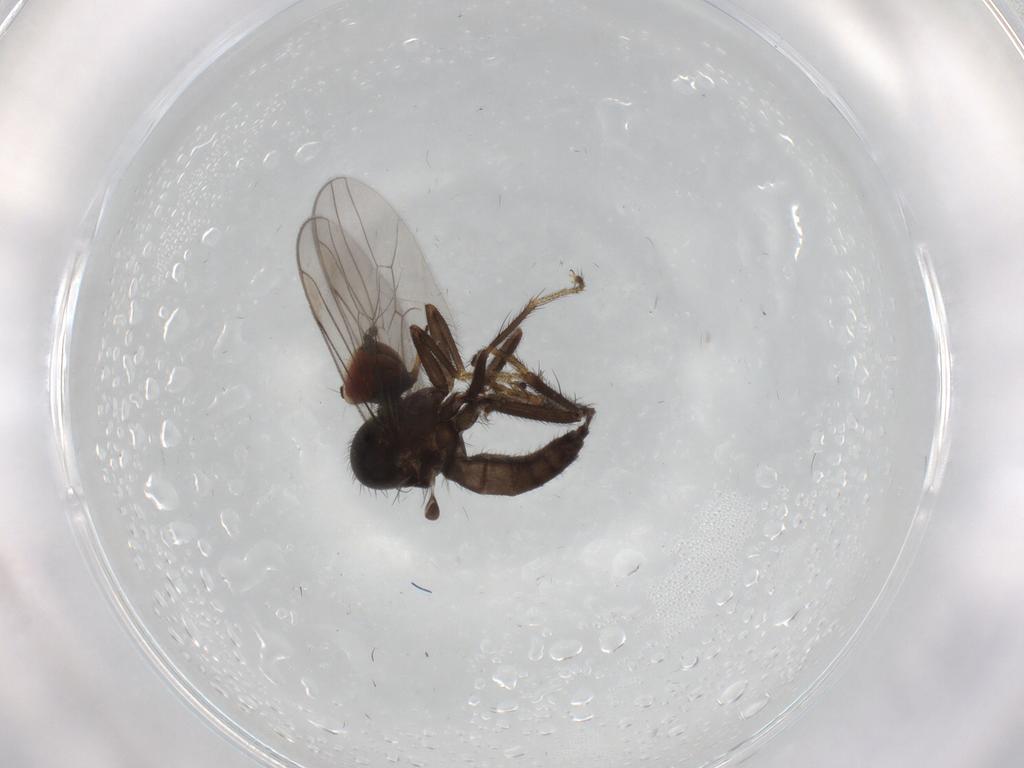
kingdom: Animalia
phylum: Arthropoda
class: Insecta
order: Diptera
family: Hybotidae
